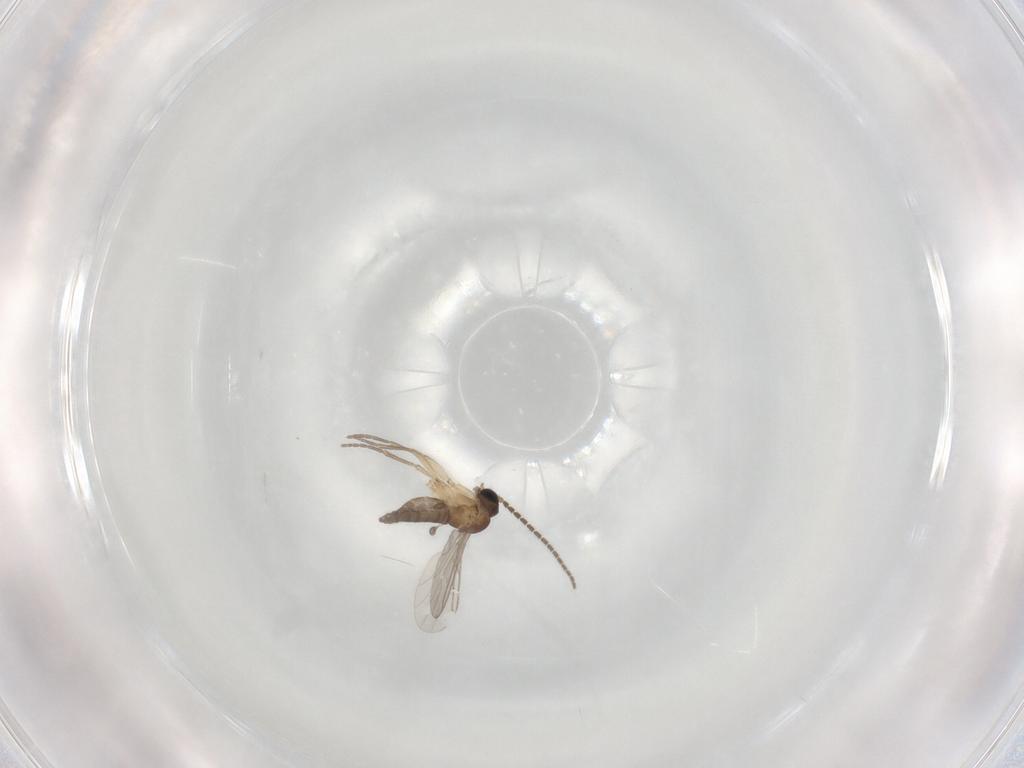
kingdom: Animalia
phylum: Arthropoda
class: Insecta
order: Diptera
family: Sciaridae
